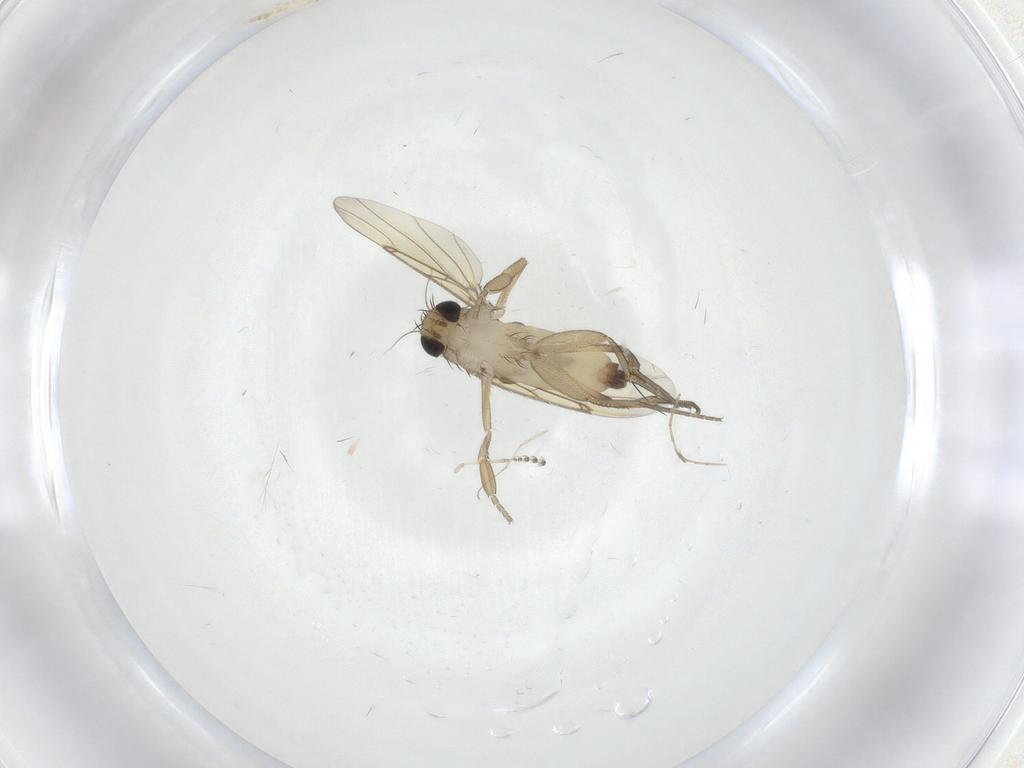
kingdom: Animalia
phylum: Arthropoda
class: Insecta
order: Diptera
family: Phoridae
